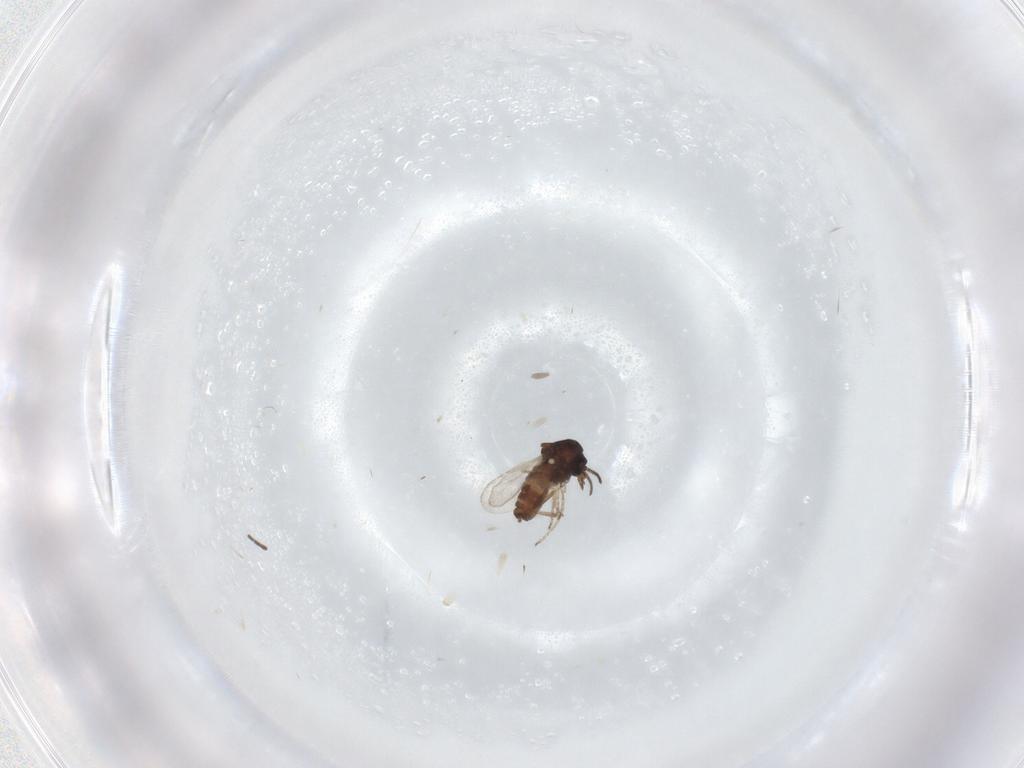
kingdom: Animalia
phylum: Arthropoda
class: Insecta
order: Diptera
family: Ceratopogonidae
